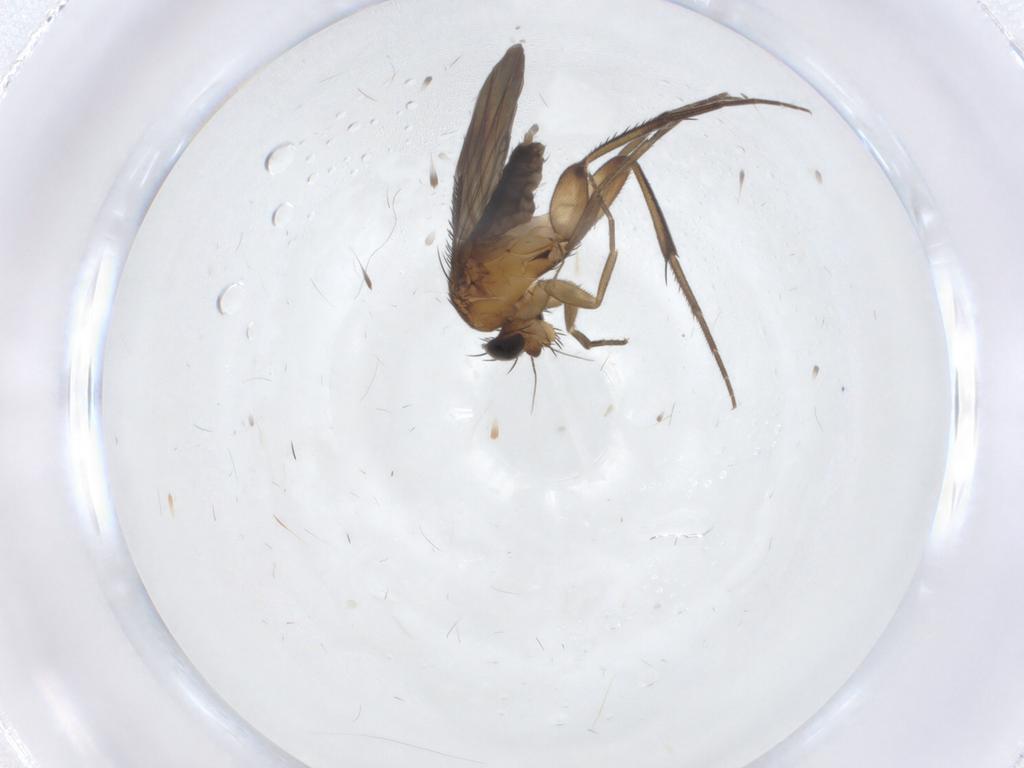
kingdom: Animalia
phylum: Arthropoda
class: Insecta
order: Diptera
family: Phoridae
